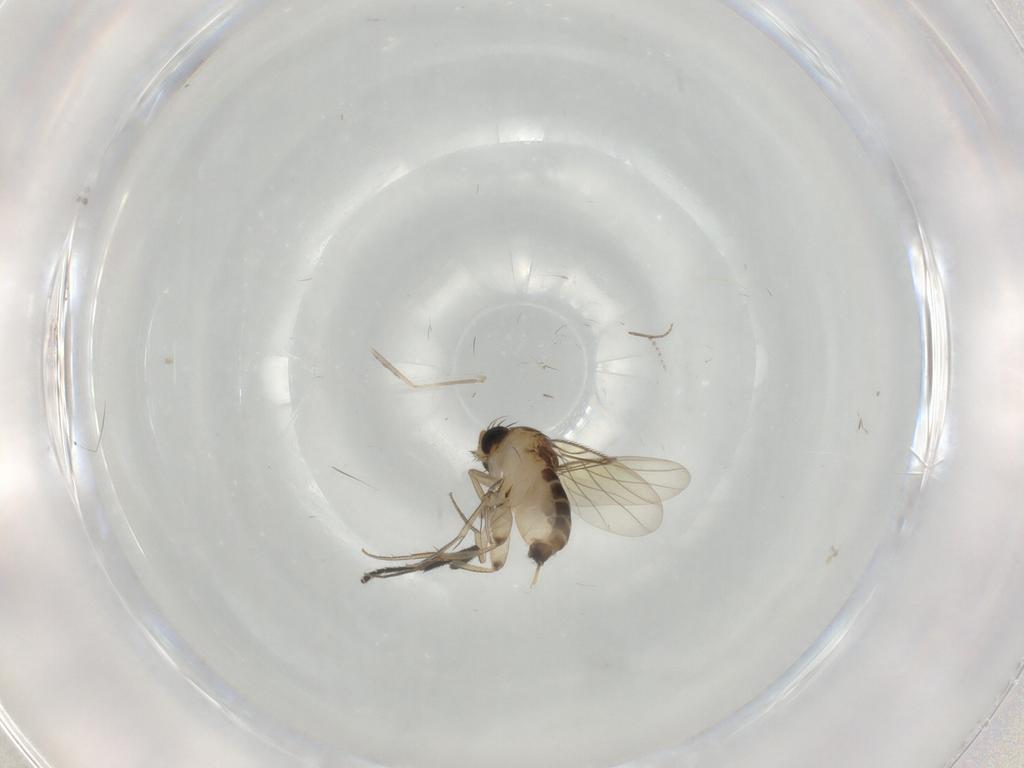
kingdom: Animalia
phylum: Arthropoda
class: Insecta
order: Diptera
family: Phoridae
